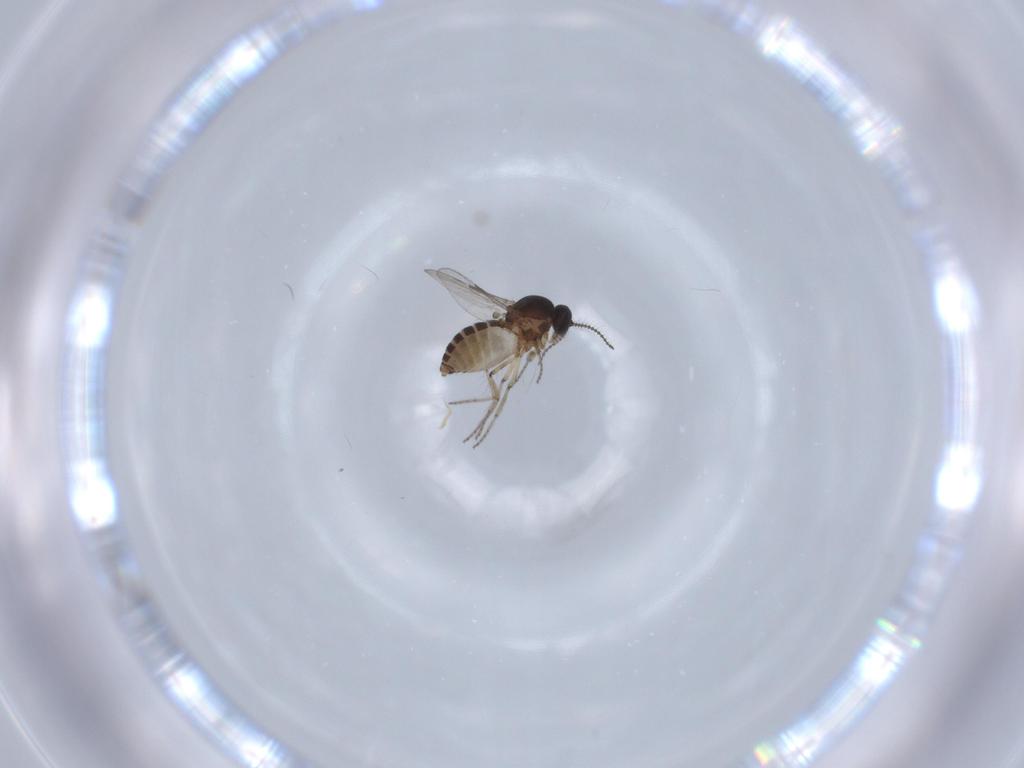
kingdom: Animalia
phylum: Arthropoda
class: Insecta
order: Diptera
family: Ceratopogonidae
